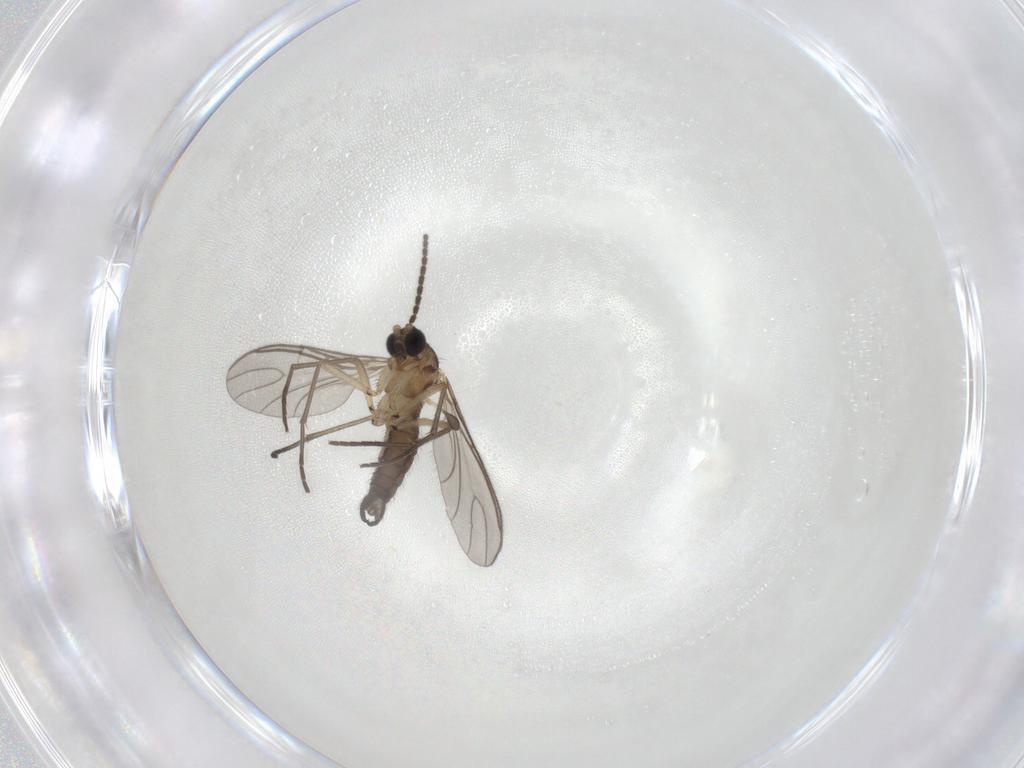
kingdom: Animalia
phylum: Arthropoda
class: Insecta
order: Diptera
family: Sciaridae
